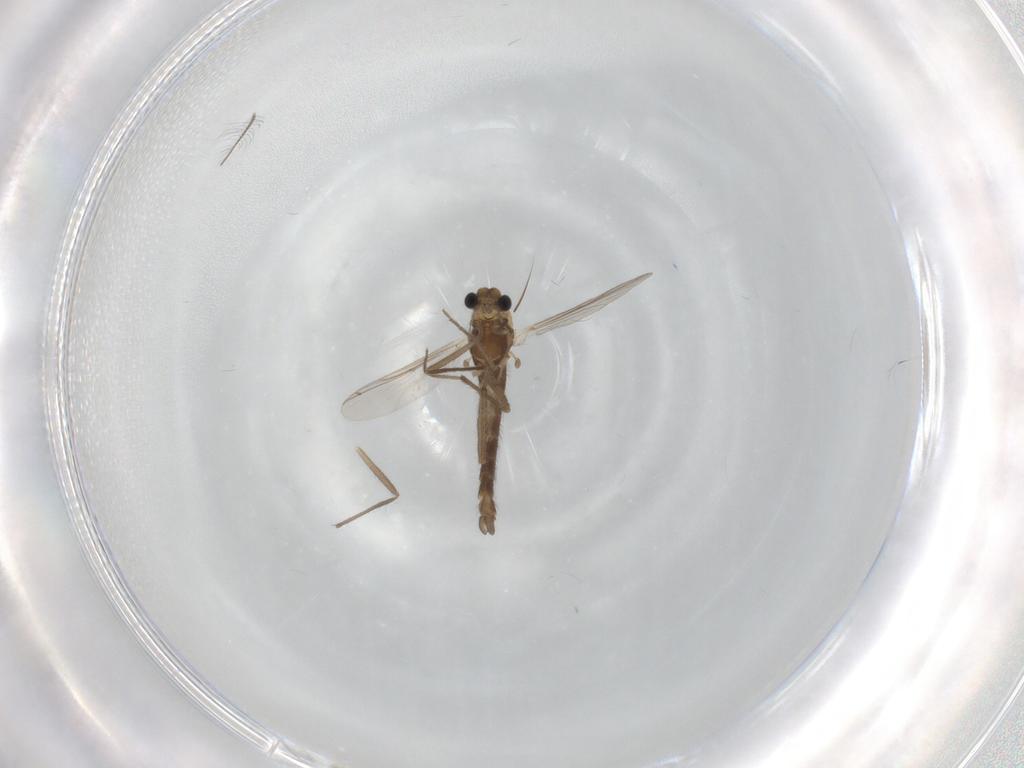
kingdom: Animalia
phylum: Arthropoda
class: Insecta
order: Diptera
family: Chironomidae
